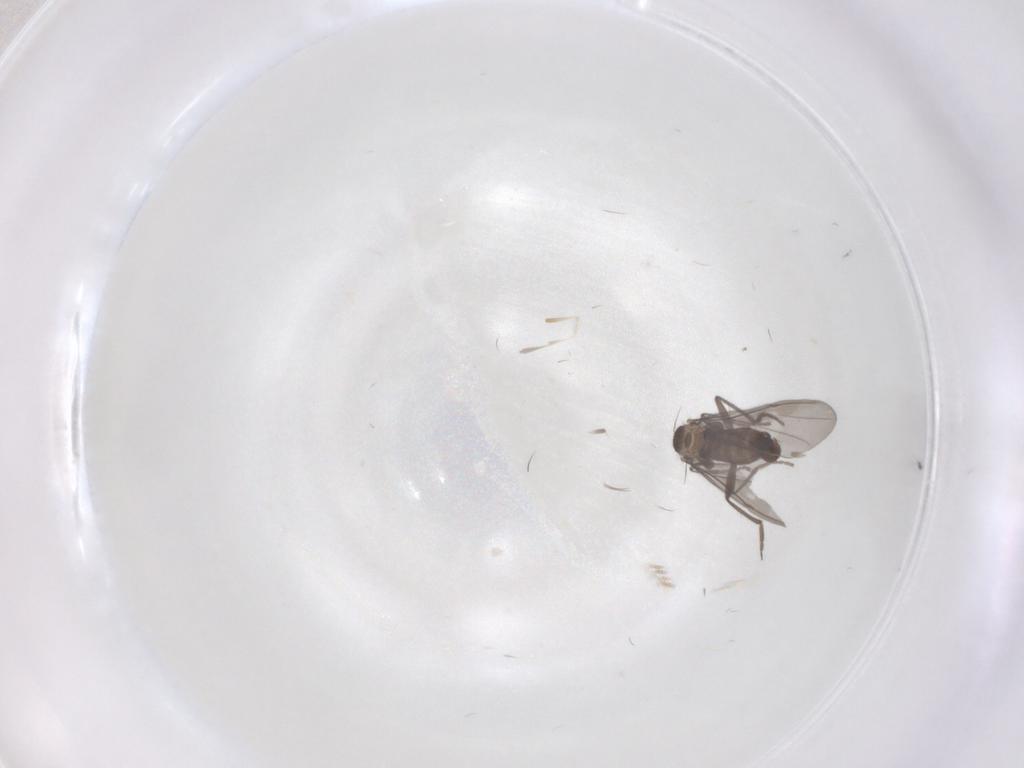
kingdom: Animalia
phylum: Arthropoda
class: Insecta
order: Diptera
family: Phoridae
